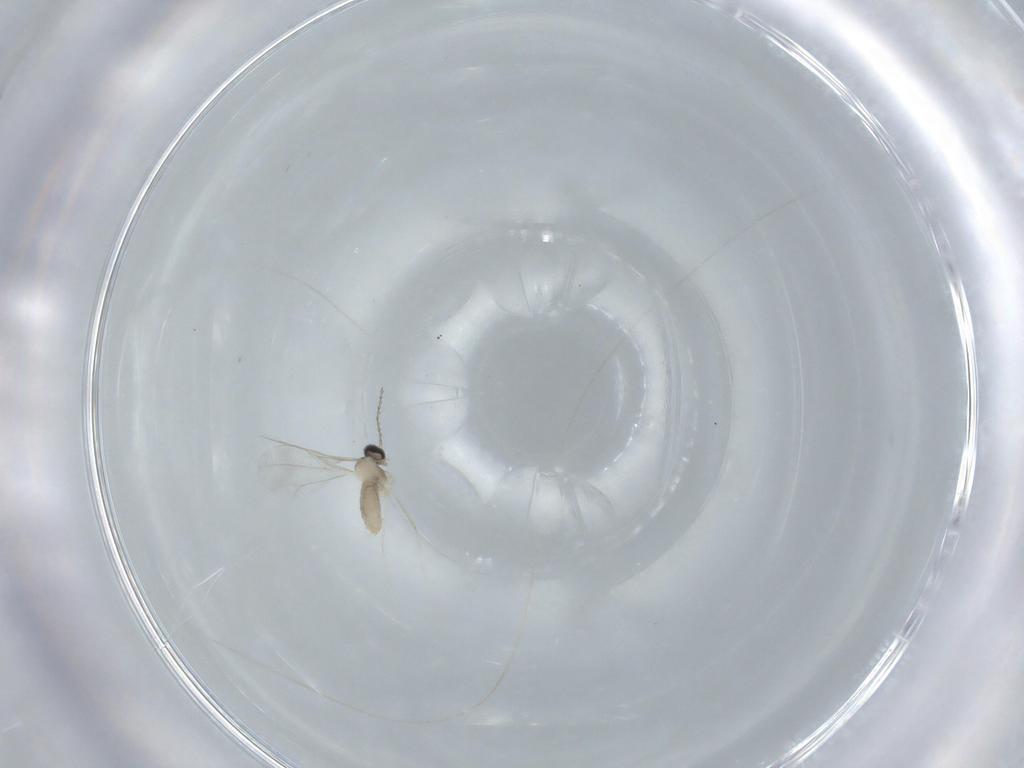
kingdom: Animalia
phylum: Arthropoda
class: Insecta
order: Diptera
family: Cecidomyiidae
